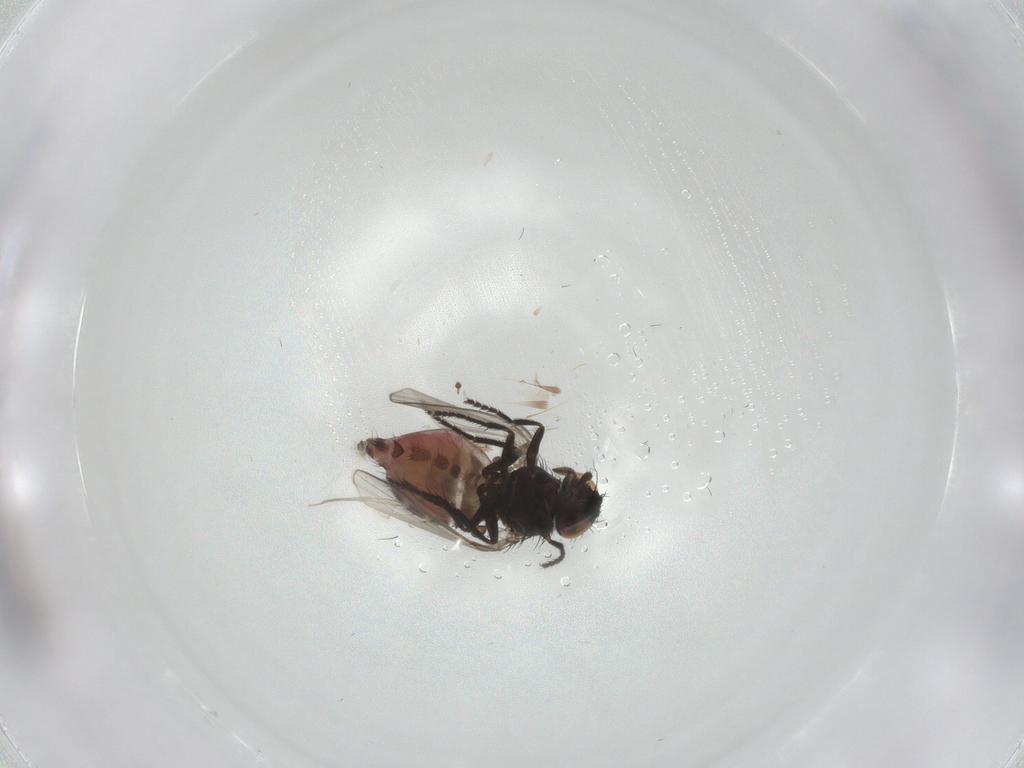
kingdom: Animalia
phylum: Arthropoda
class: Insecta
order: Diptera
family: Milichiidae
